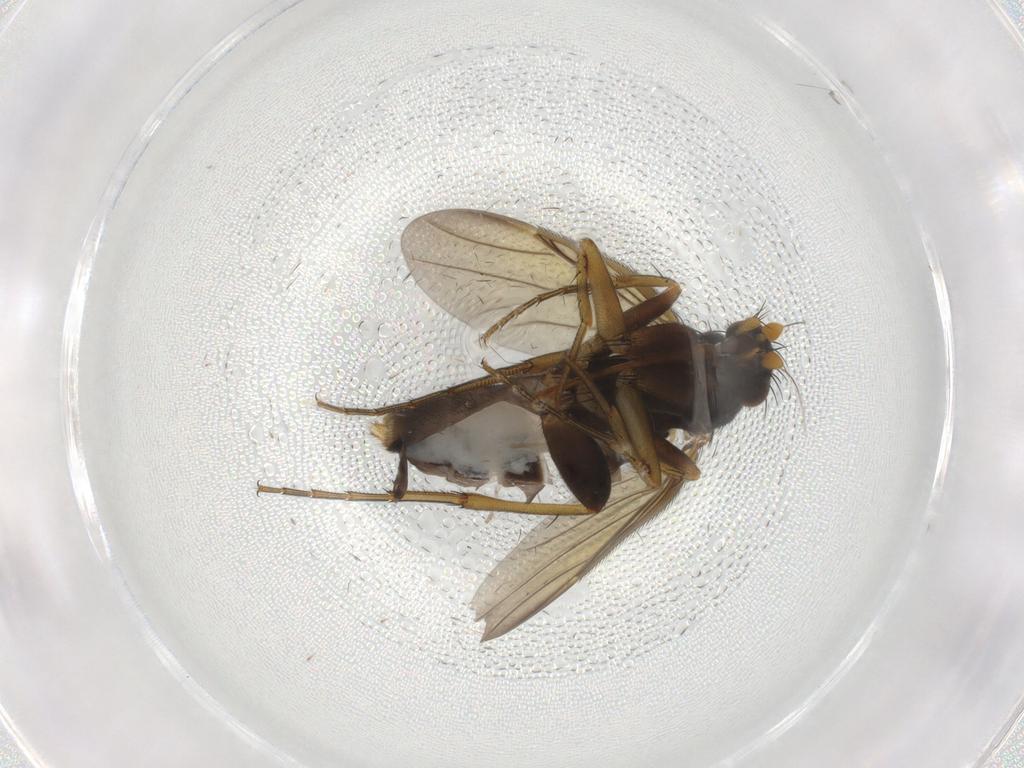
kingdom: Animalia
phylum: Arthropoda
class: Insecta
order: Diptera
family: Phoridae
